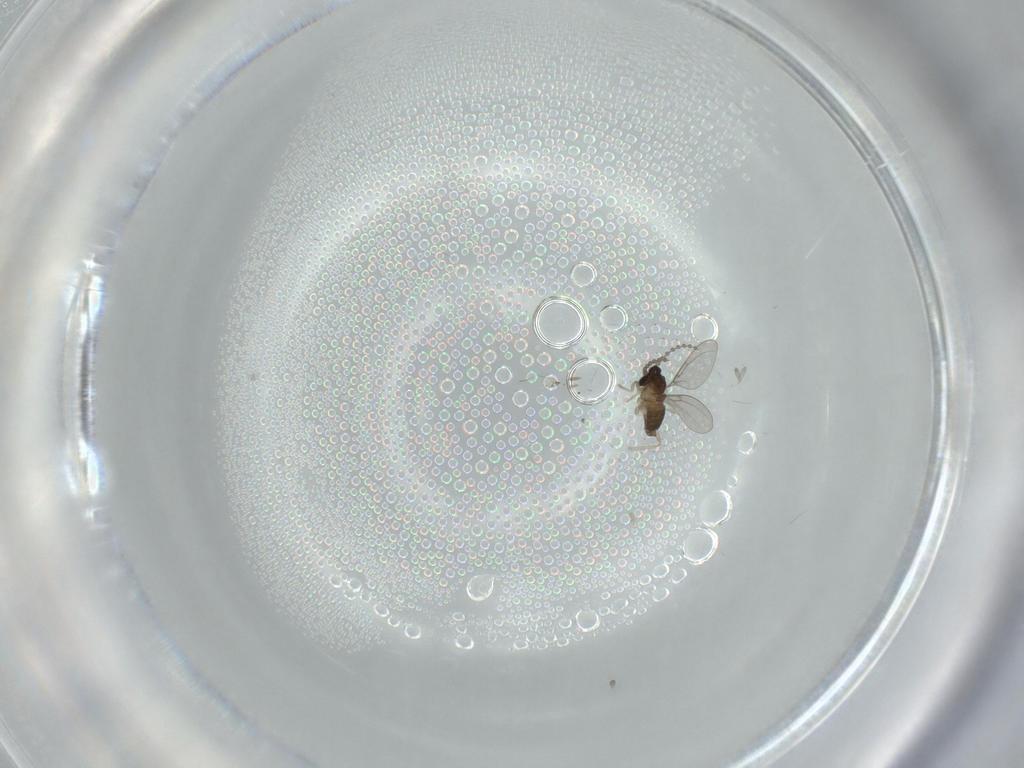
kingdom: Animalia
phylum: Arthropoda
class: Insecta
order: Diptera
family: Cecidomyiidae
